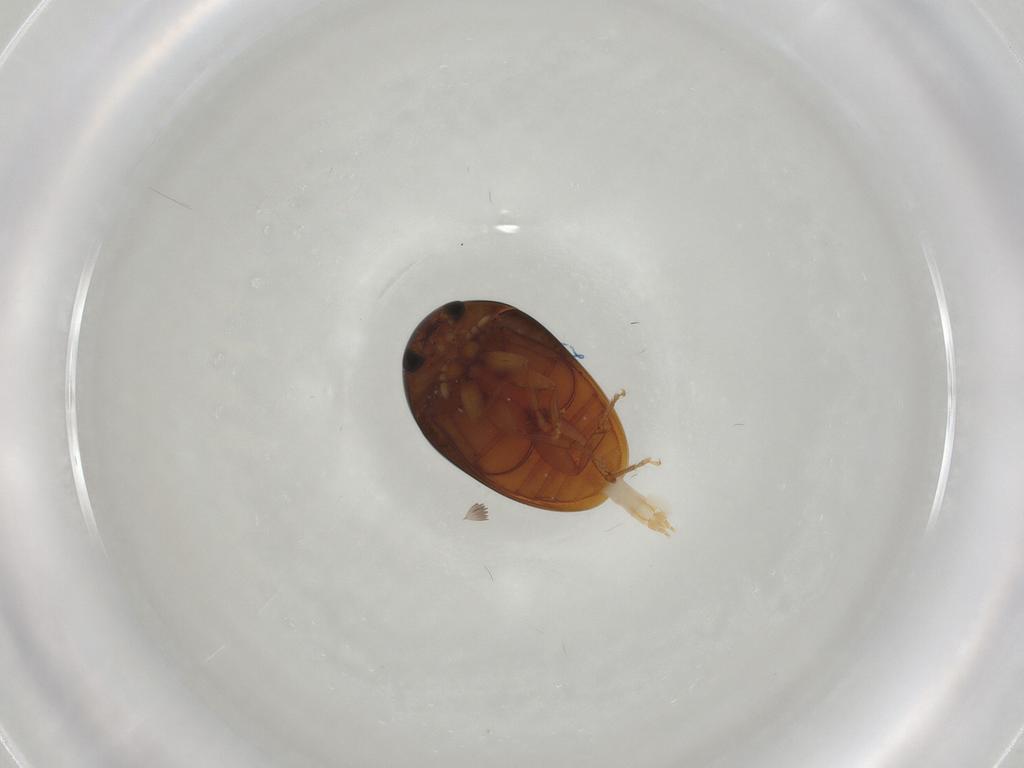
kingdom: Animalia
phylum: Arthropoda
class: Insecta
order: Coleoptera
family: Phalacridae
